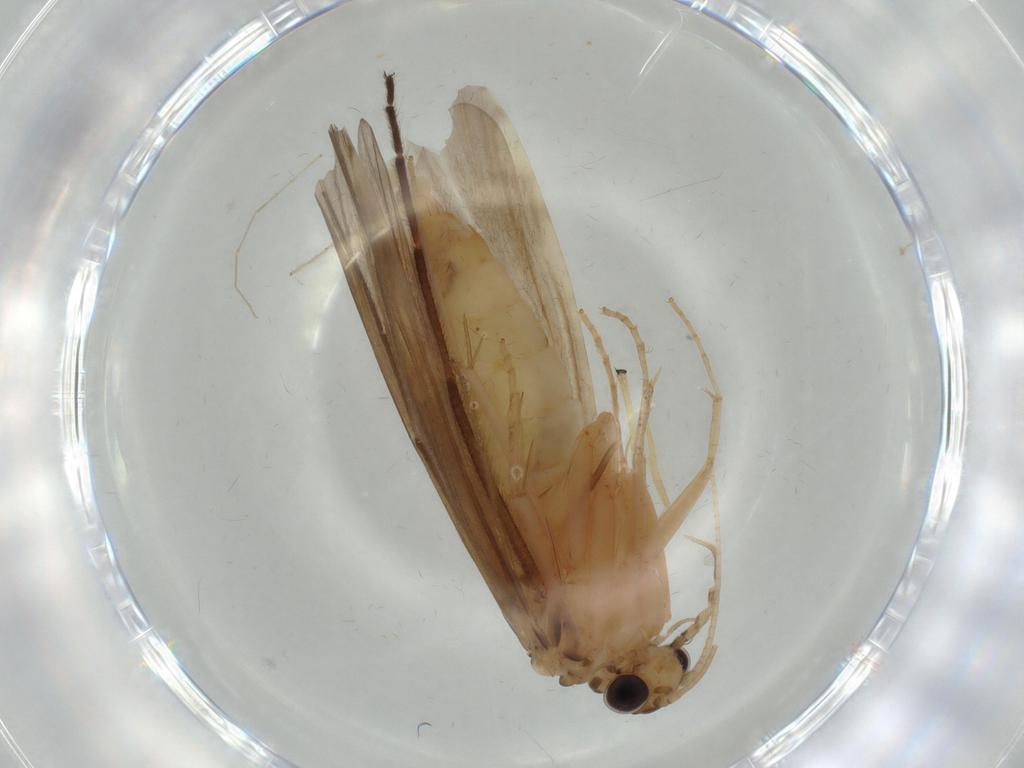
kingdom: Animalia
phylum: Arthropoda
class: Insecta
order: Trichoptera
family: Ecnomidae
